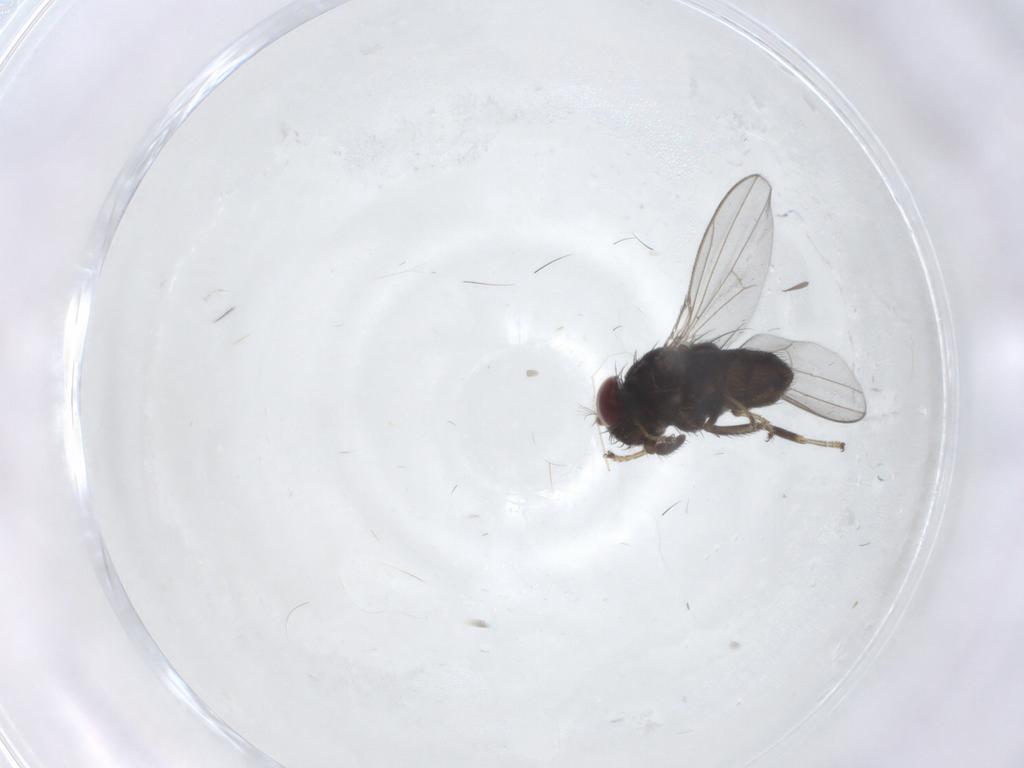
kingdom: Animalia
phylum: Arthropoda
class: Insecta
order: Diptera
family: Ephydridae
